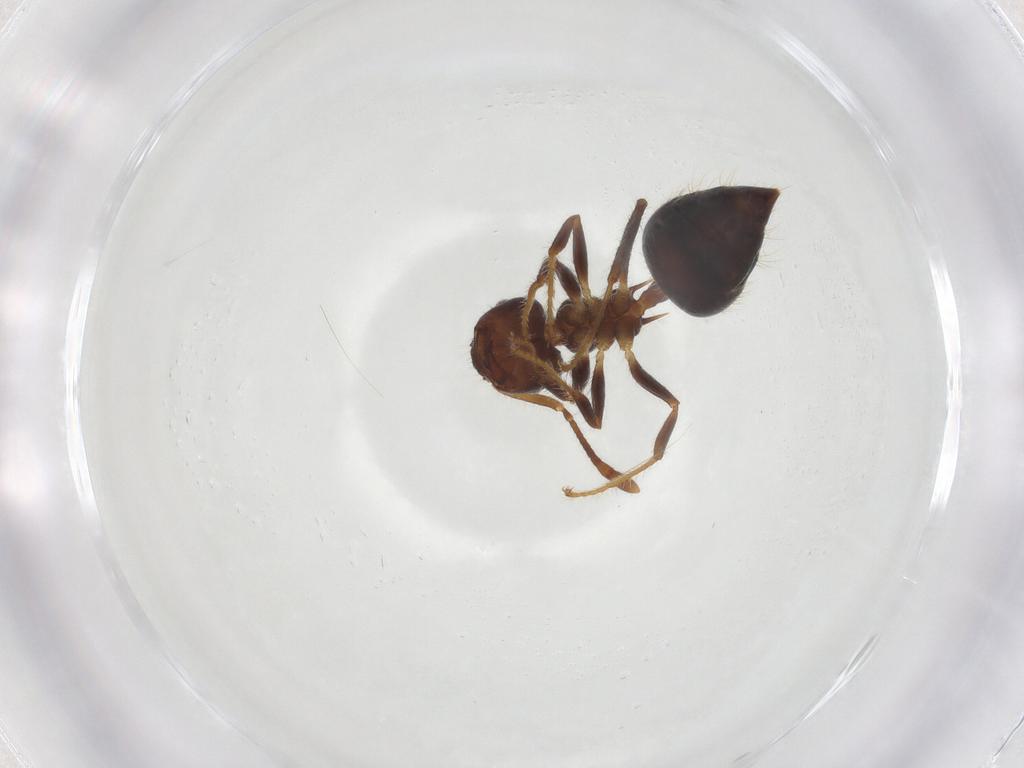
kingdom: Animalia
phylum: Arthropoda
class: Insecta
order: Hymenoptera
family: Formicidae
